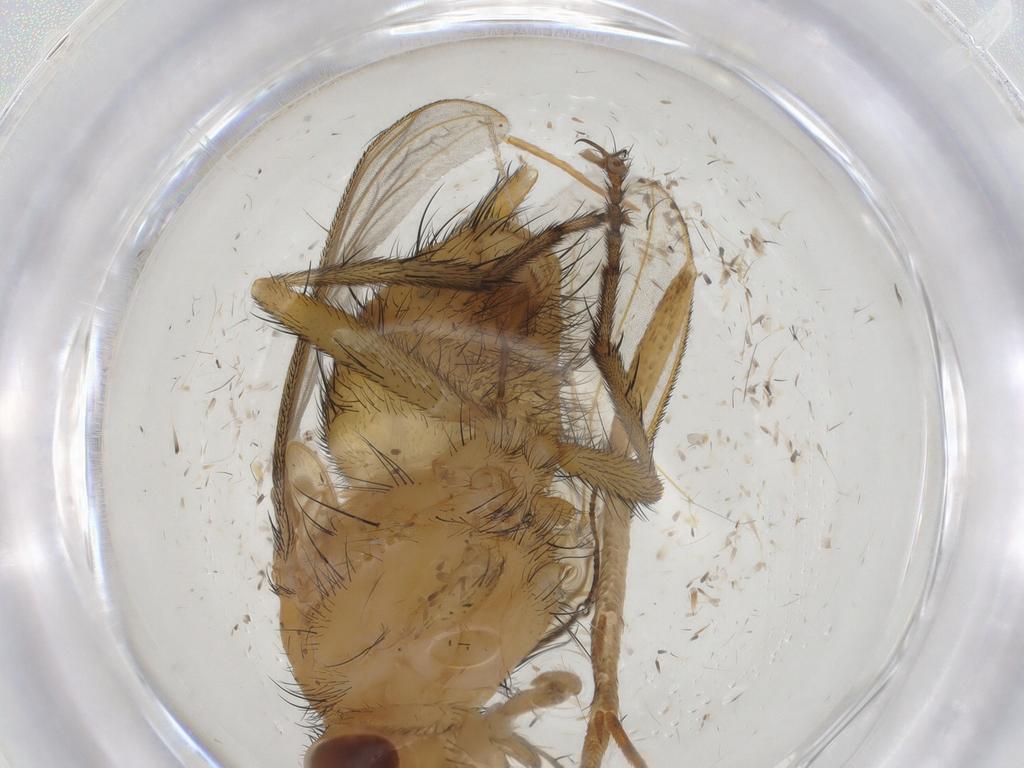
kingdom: Animalia
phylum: Arthropoda
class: Insecta
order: Diptera
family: Tachinidae
